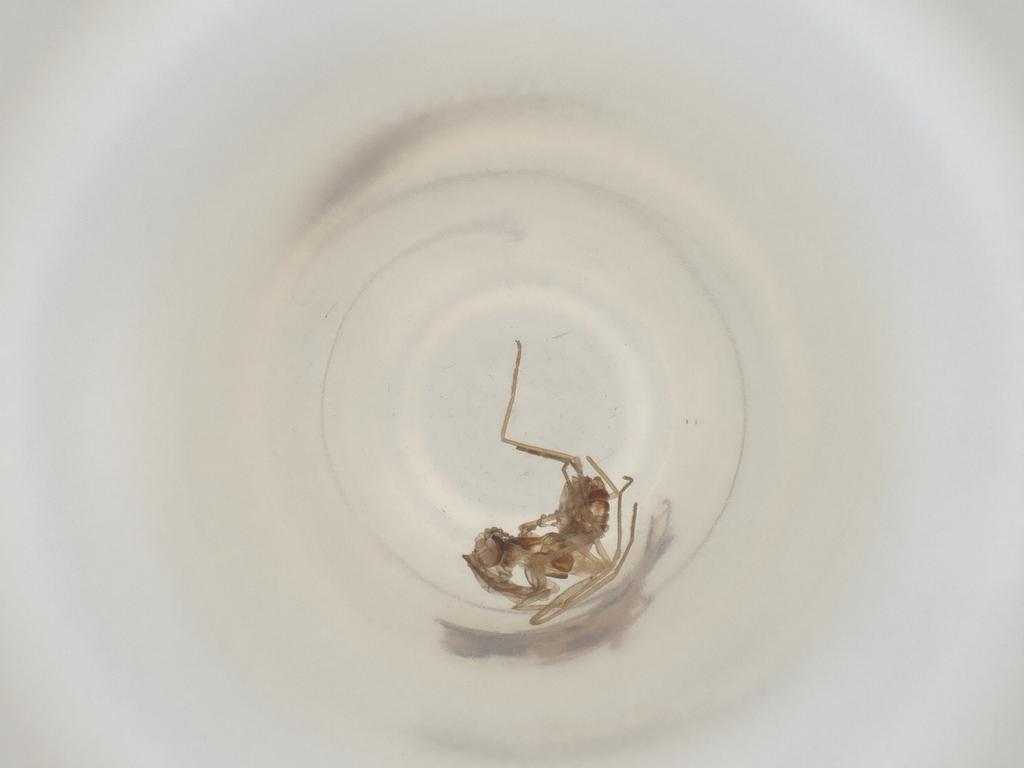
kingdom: Animalia
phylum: Arthropoda
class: Insecta
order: Diptera
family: Cecidomyiidae
